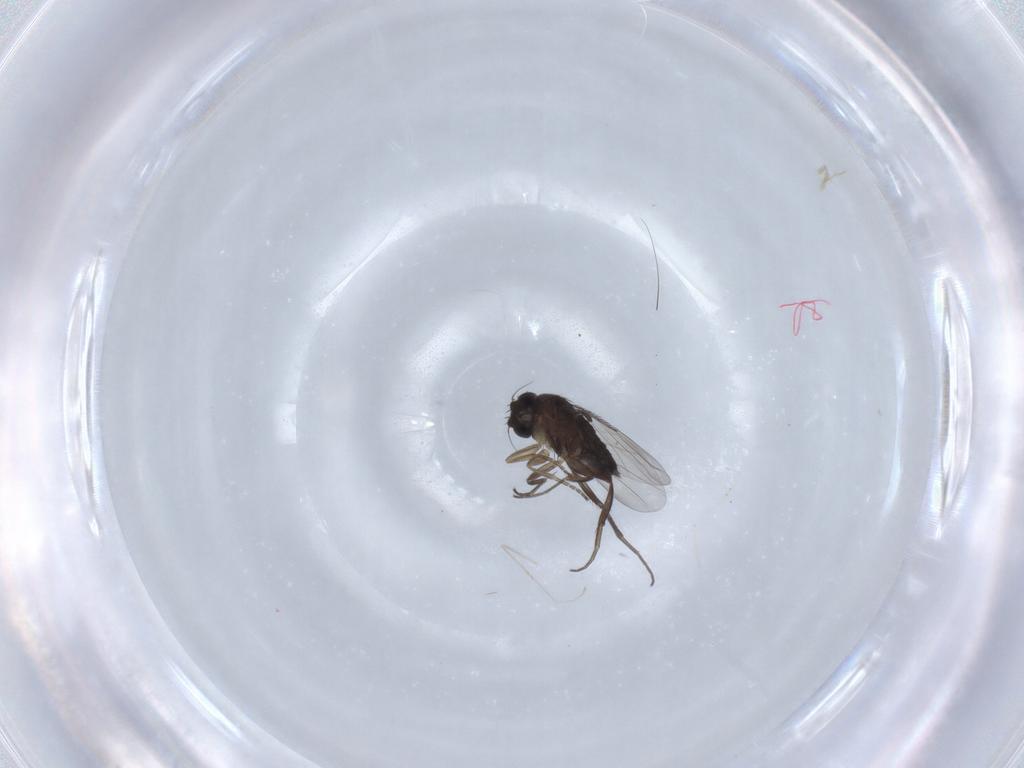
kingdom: Animalia
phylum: Arthropoda
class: Insecta
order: Diptera
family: Phoridae
